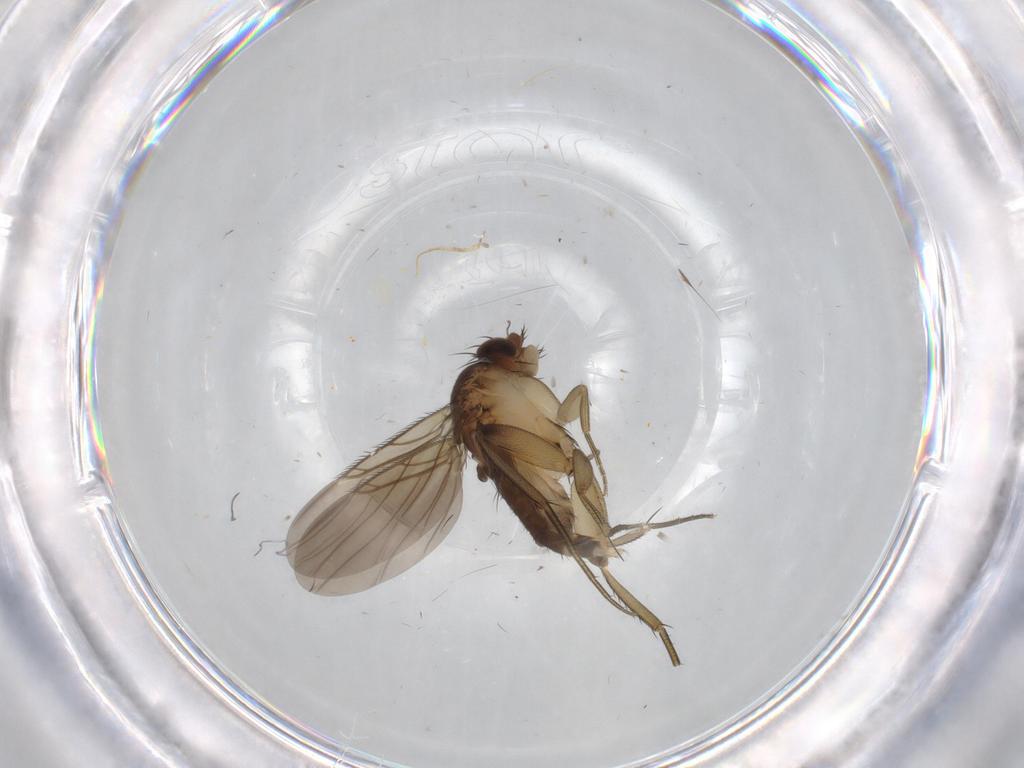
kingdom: Animalia
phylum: Arthropoda
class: Insecta
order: Diptera
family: Phoridae
